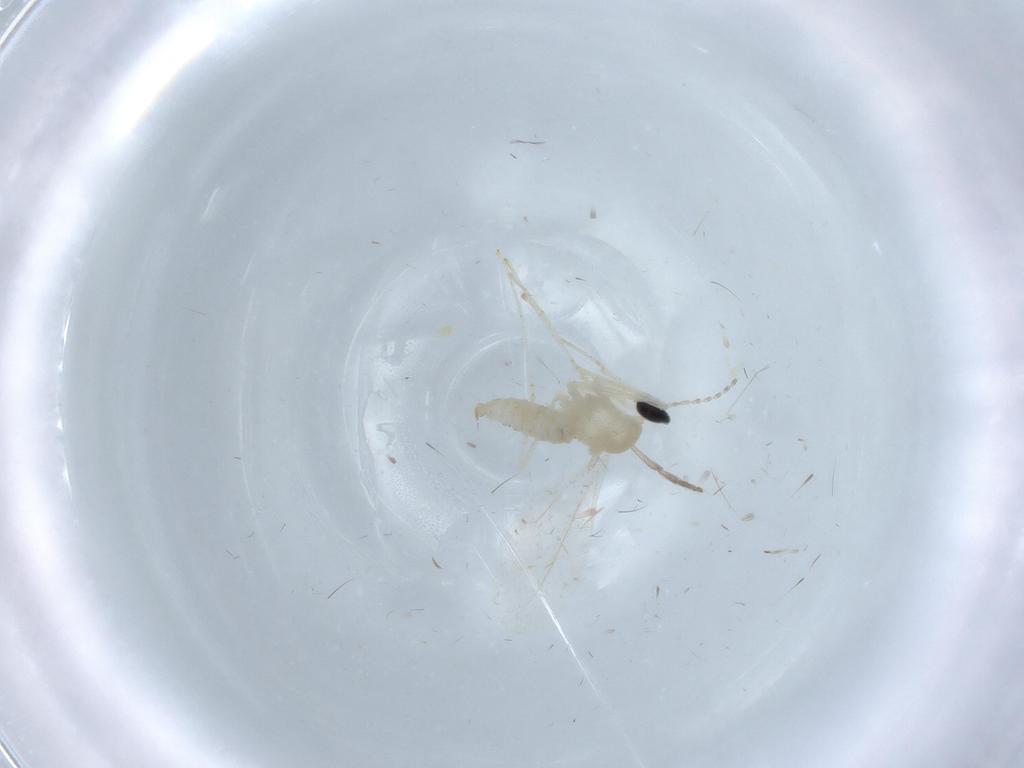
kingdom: Animalia
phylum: Arthropoda
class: Insecta
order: Diptera
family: Cecidomyiidae
